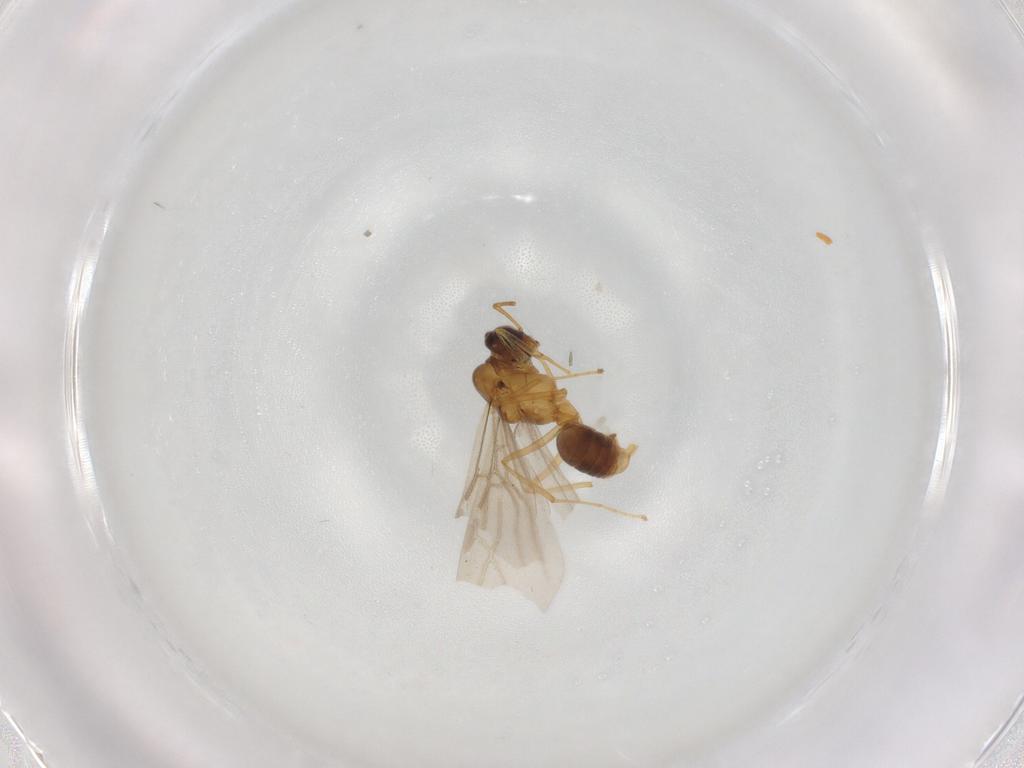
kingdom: Animalia
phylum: Arthropoda
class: Insecta
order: Hymenoptera
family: Formicidae
